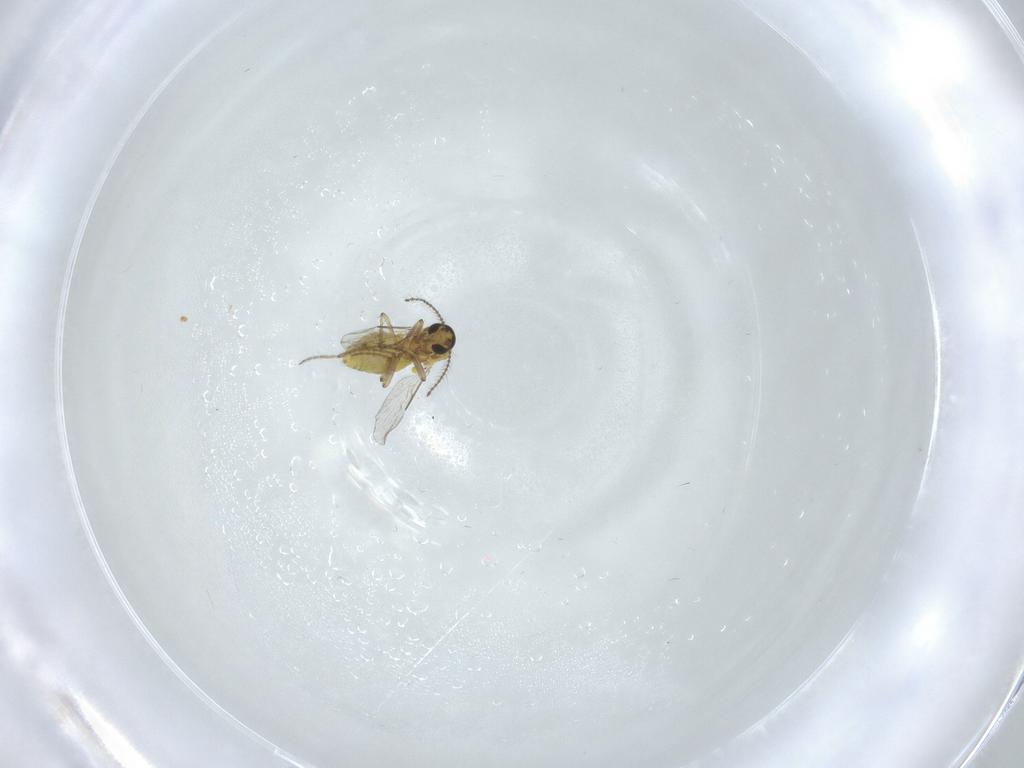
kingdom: Animalia
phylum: Arthropoda
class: Insecta
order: Diptera
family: Ceratopogonidae
